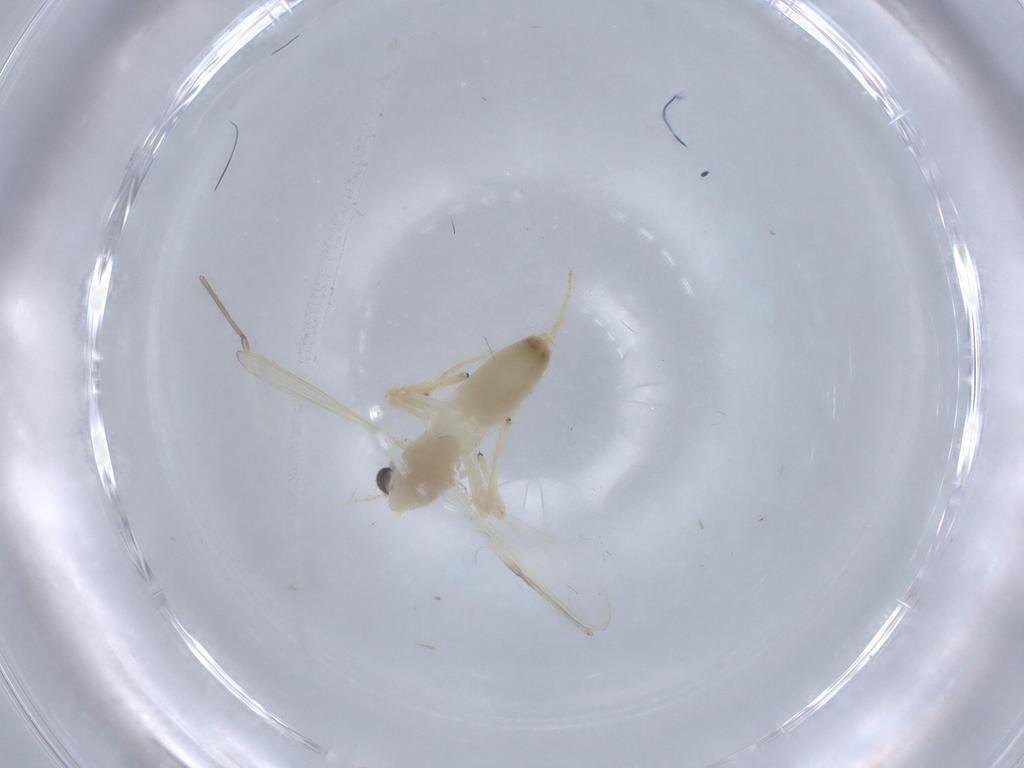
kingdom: Animalia
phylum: Arthropoda
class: Insecta
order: Diptera
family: Chironomidae
